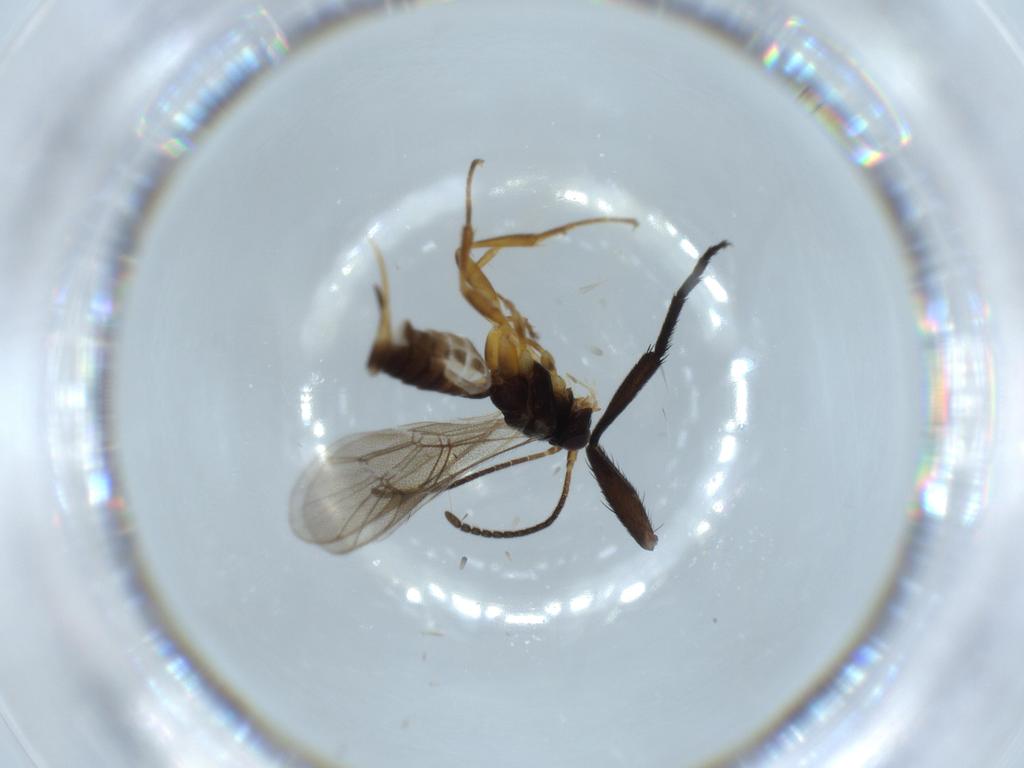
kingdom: Animalia
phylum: Arthropoda
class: Insecta
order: Hymenoptera
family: Ichneumonidae
